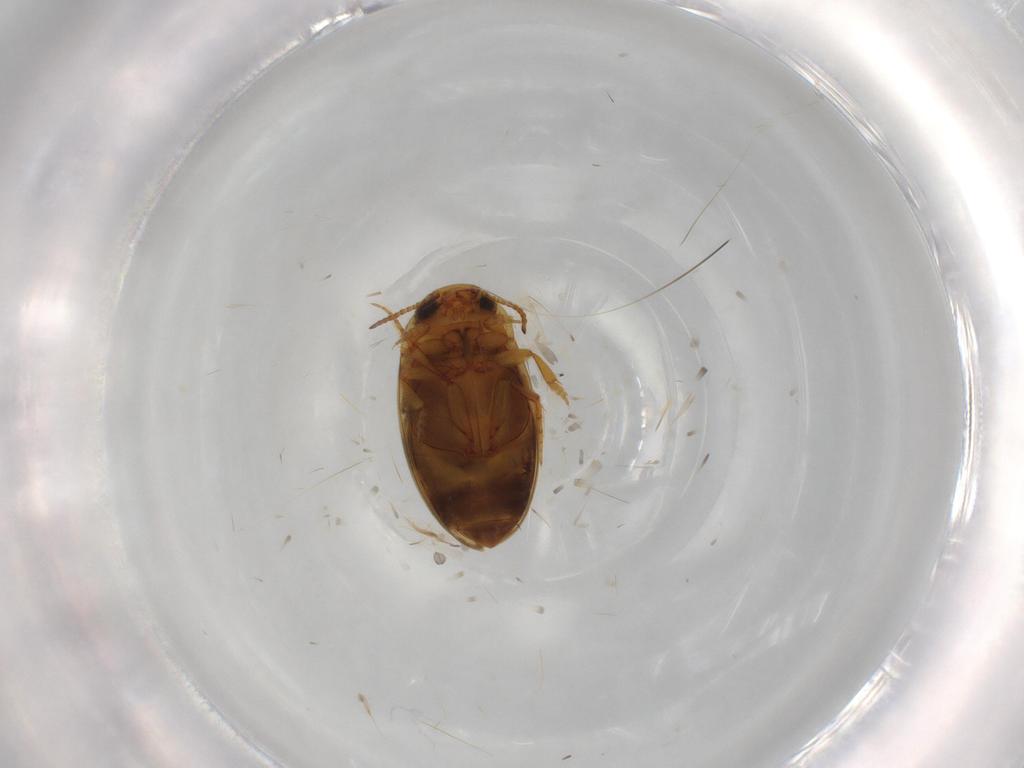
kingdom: Animalia
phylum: Arthropoda
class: Insecta
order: Coleoptera
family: Dytiscidae
